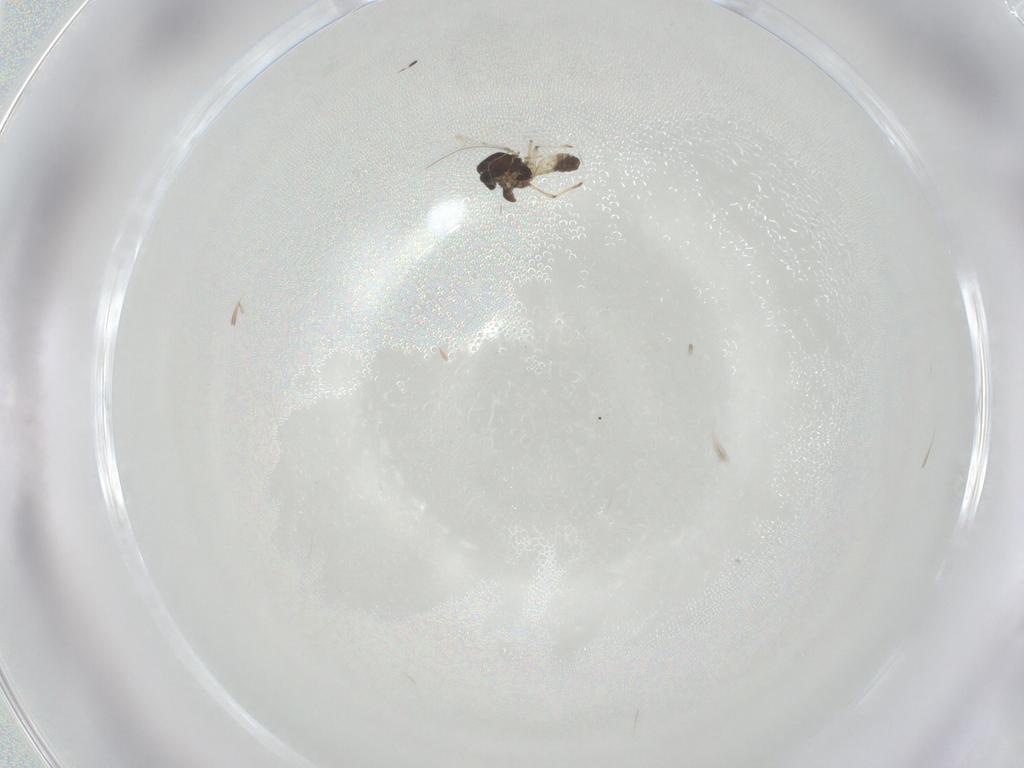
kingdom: Animalia
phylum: Arthropoda
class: Insecta
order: Diptera
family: Chironomidae
